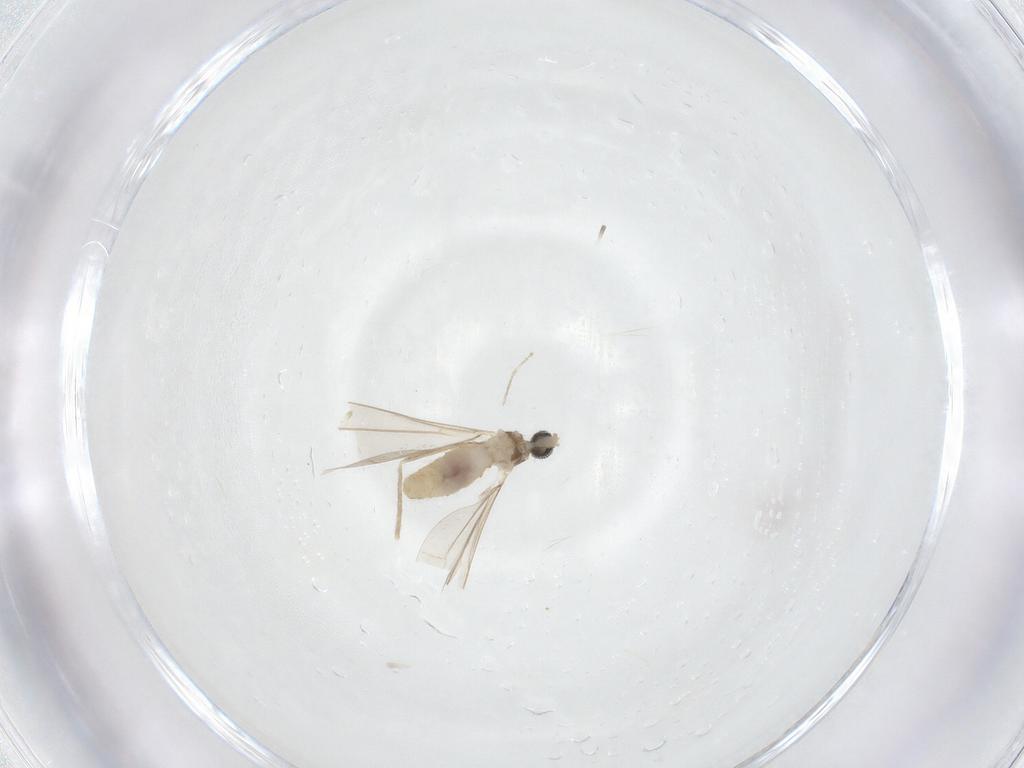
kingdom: Animalia
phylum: Arthropoda
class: Insecta
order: Diptera
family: Cecidomyiidae
